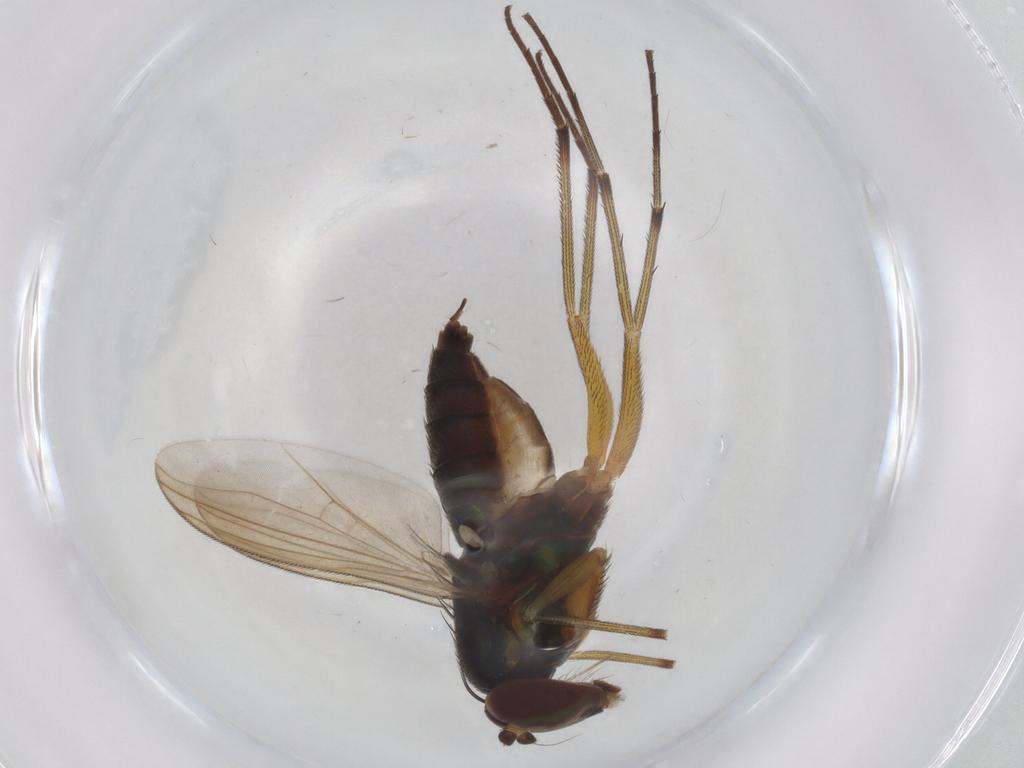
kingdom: Animalia
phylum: Arthropoda
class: Insecta
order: Diptera
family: Dolichopodidae
